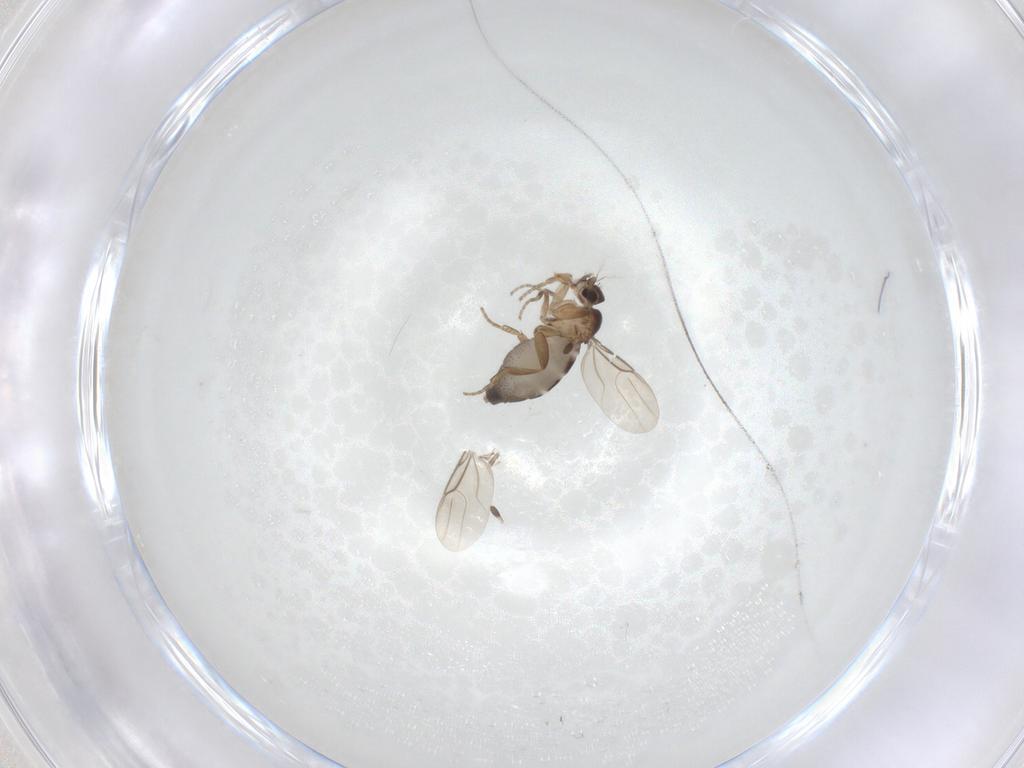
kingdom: Animalia
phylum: Arthropoda
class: Insecta
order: Diptera
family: Phoridae
